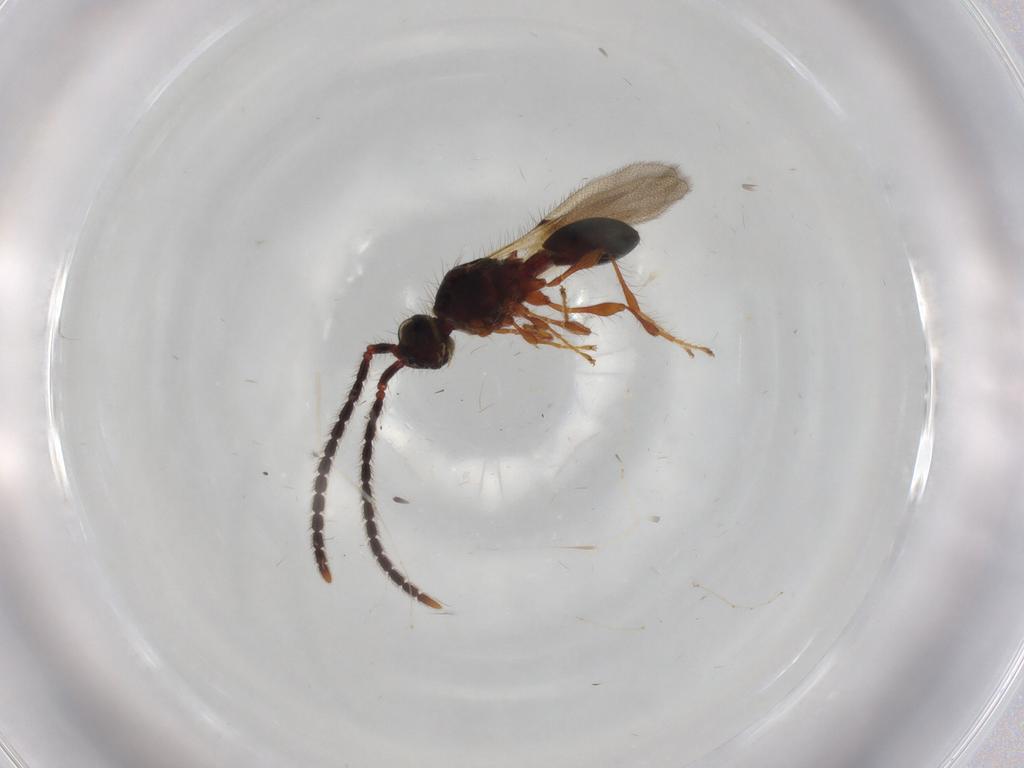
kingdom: Animalia
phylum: Arthropoda
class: Insecta
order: Hymenoptera
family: Diapriidae
